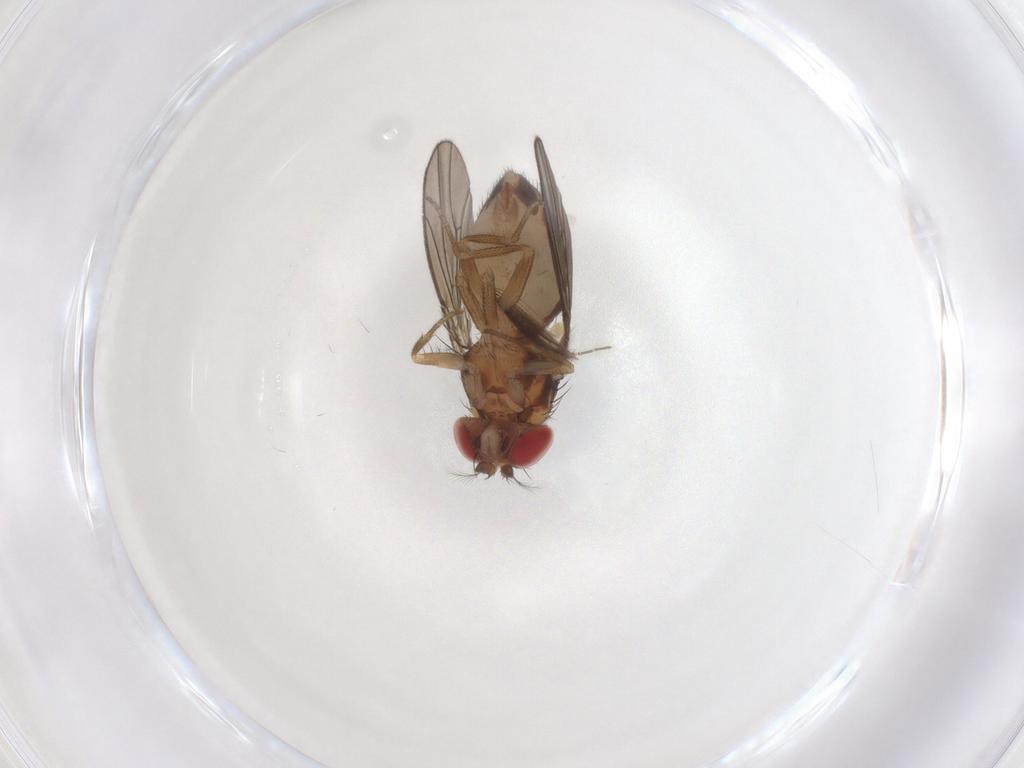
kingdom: Animalia
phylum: Arthropoda
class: Insecta
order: Diptera
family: Drosophilidae
